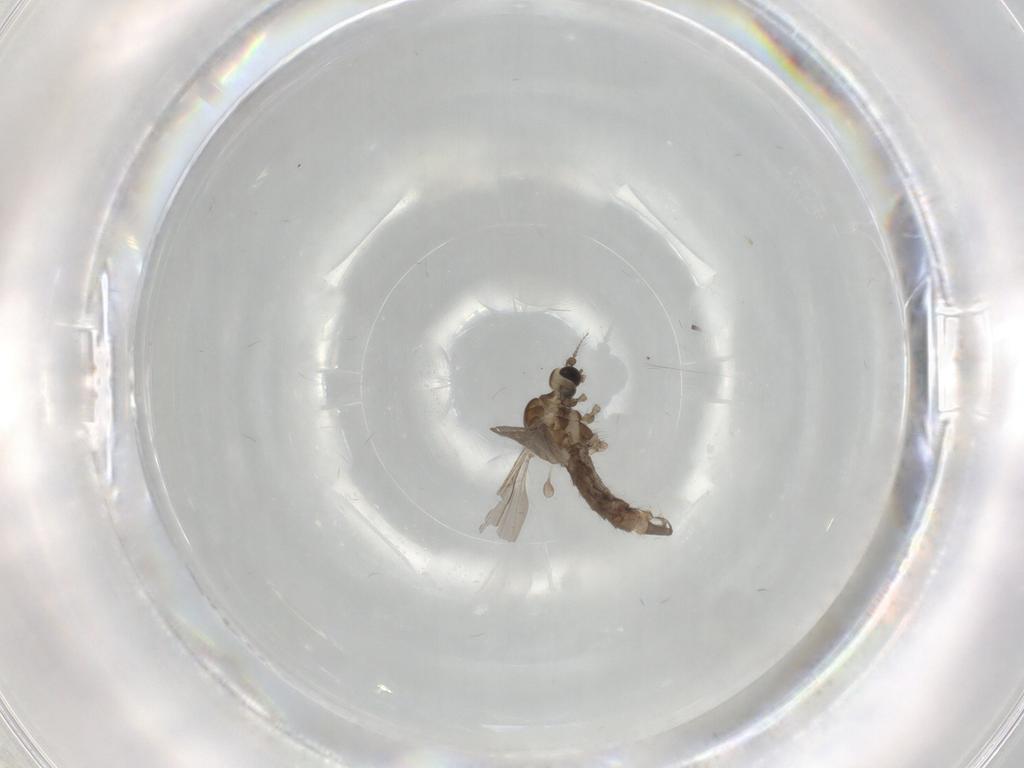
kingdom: Animalia
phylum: Arthropoda
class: Insecta
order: Diptera
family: Limoniidae
